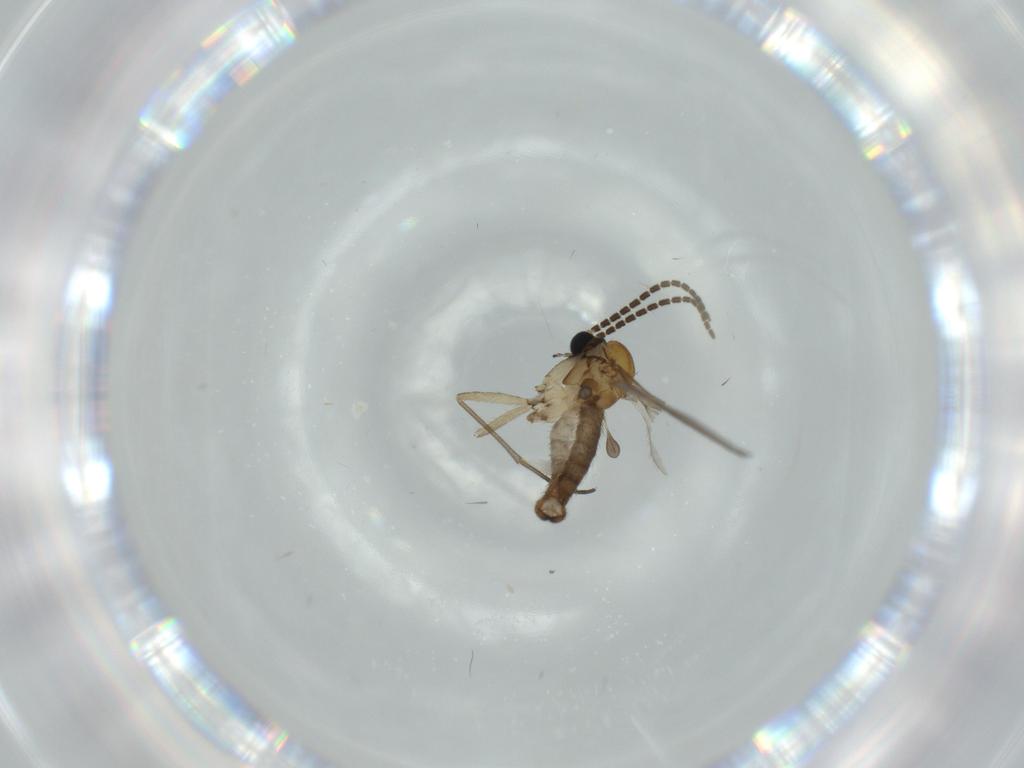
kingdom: Animalia
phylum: Arthropoda
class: Insecta
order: Diptera
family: Sciaridae
